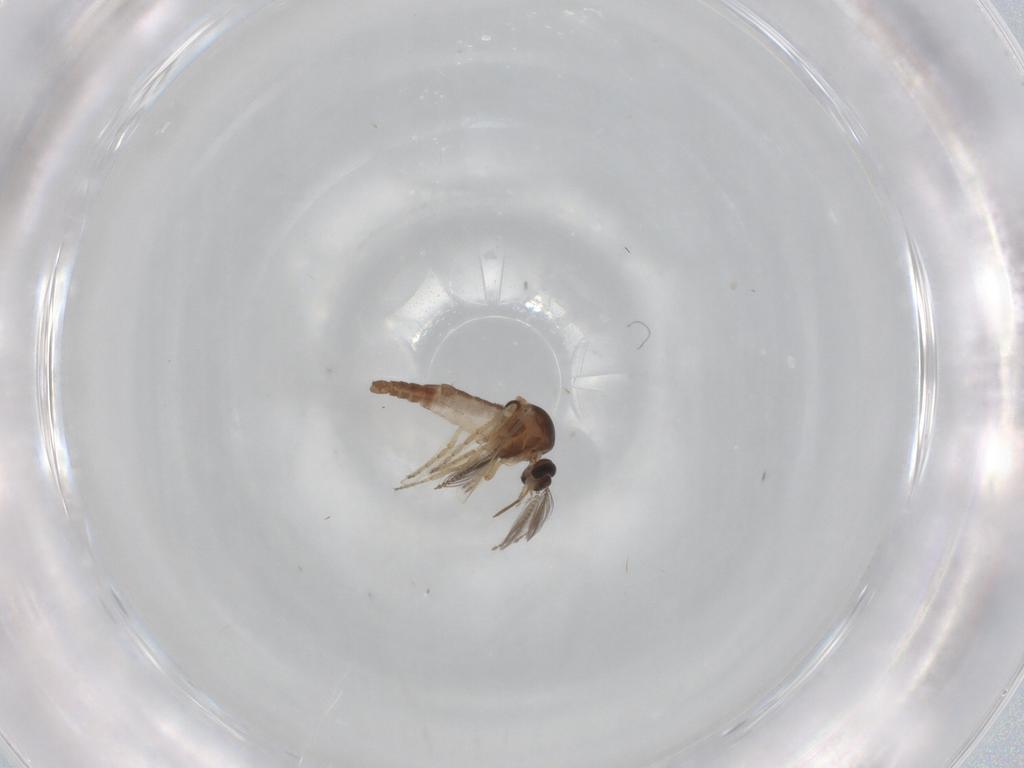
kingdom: Animalia
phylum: Arthropoda
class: Insecta
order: Diptera
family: Ceratopogonidae
